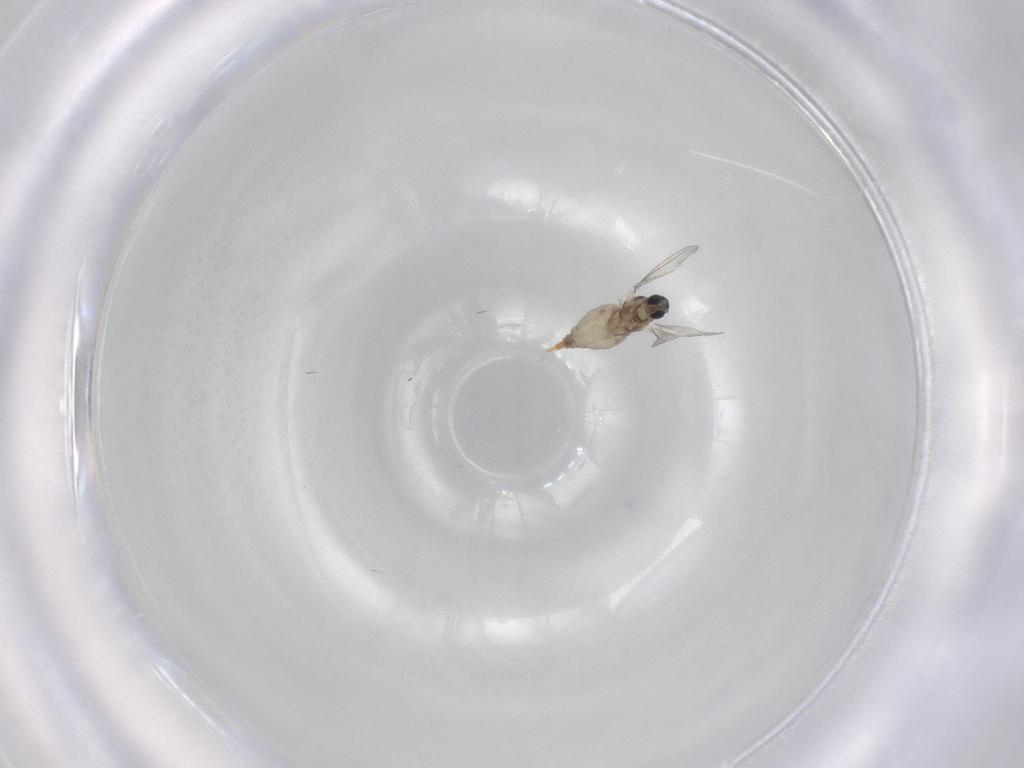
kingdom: Animalia
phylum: Arthropoda
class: Insecta
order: Diptera
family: Cecidomyiidae
